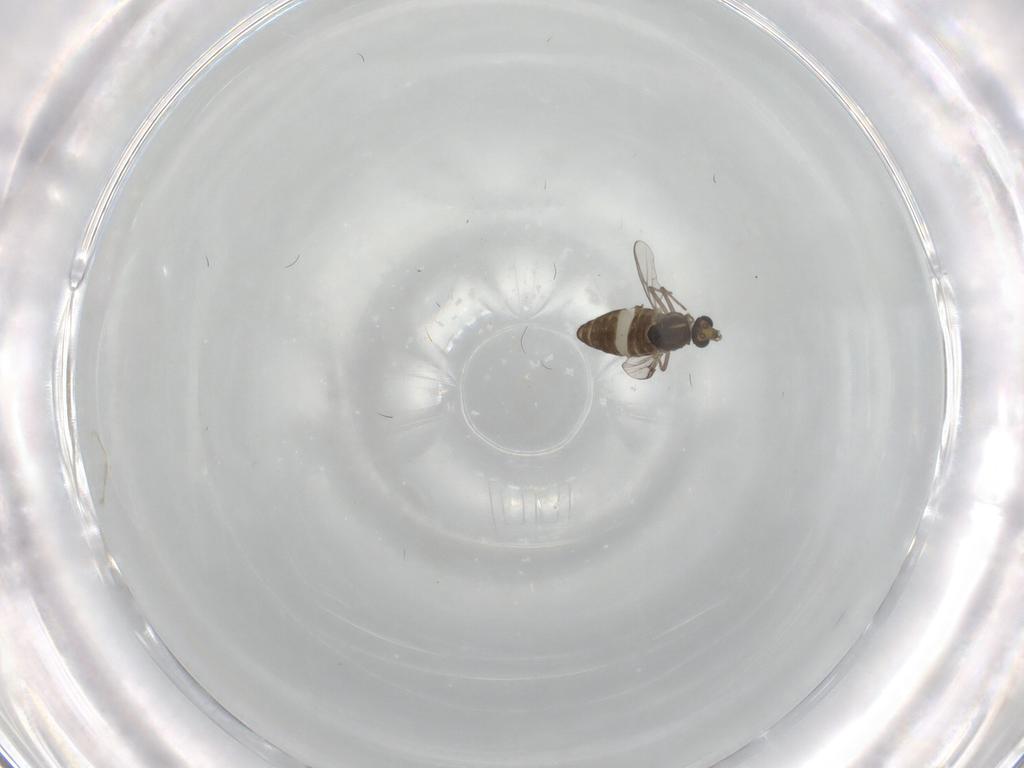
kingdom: Animalia
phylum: Arthropoda
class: Insecta
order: Diptera
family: Chironomidae
